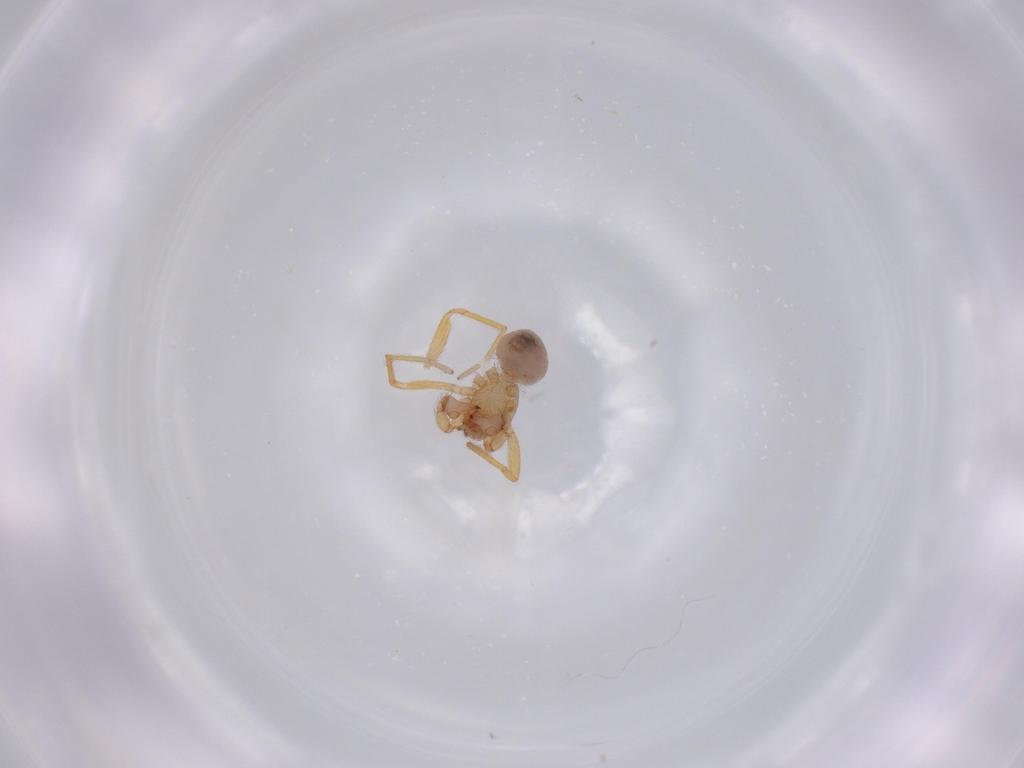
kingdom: Animalia
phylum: Arthropoda
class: Arachnida
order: Araneae
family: Oonopidae
